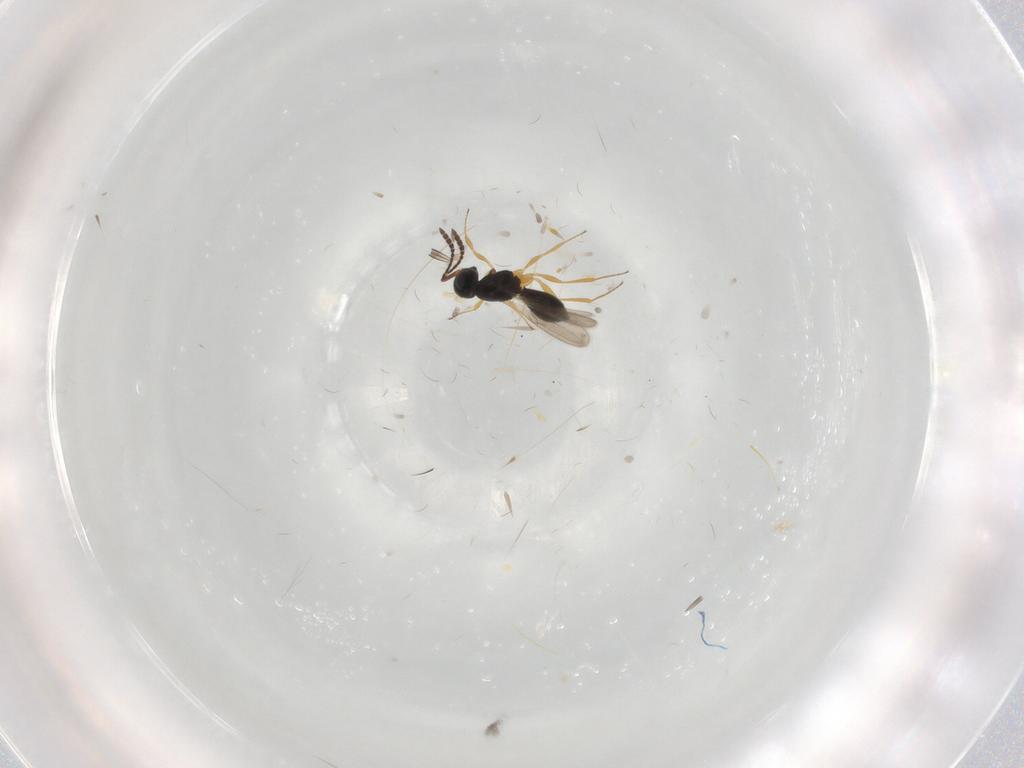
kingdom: Animalia
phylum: Arthropoda
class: Insecta
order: Hymenoptera
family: Scelionidae
